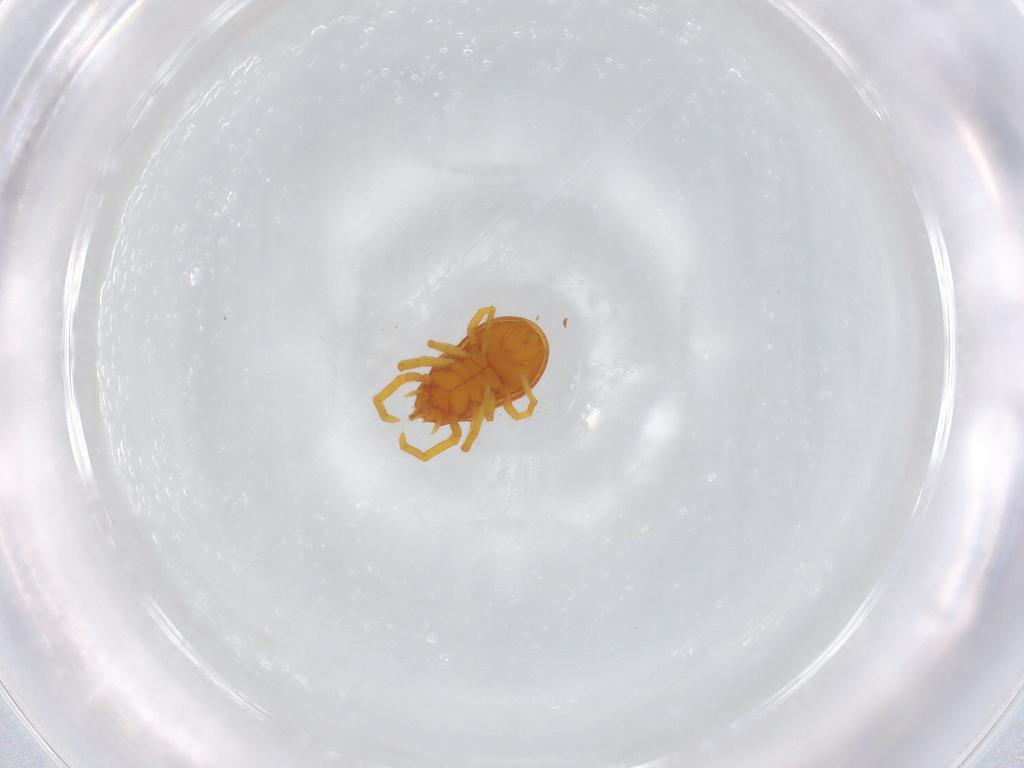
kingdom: Animalia
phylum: Arthropoda
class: Arachnida
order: Trombidiformes
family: Labidostommidae
